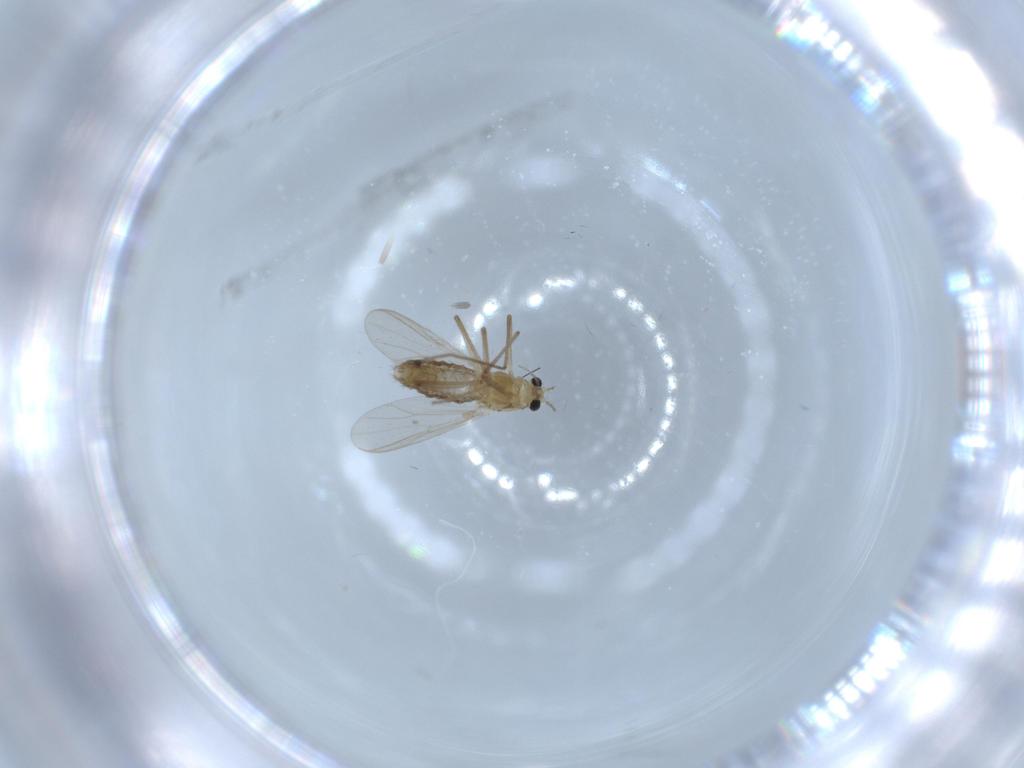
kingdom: Animalia
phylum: Arthropoda
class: Insecta
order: Diptera
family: Chironomidae
